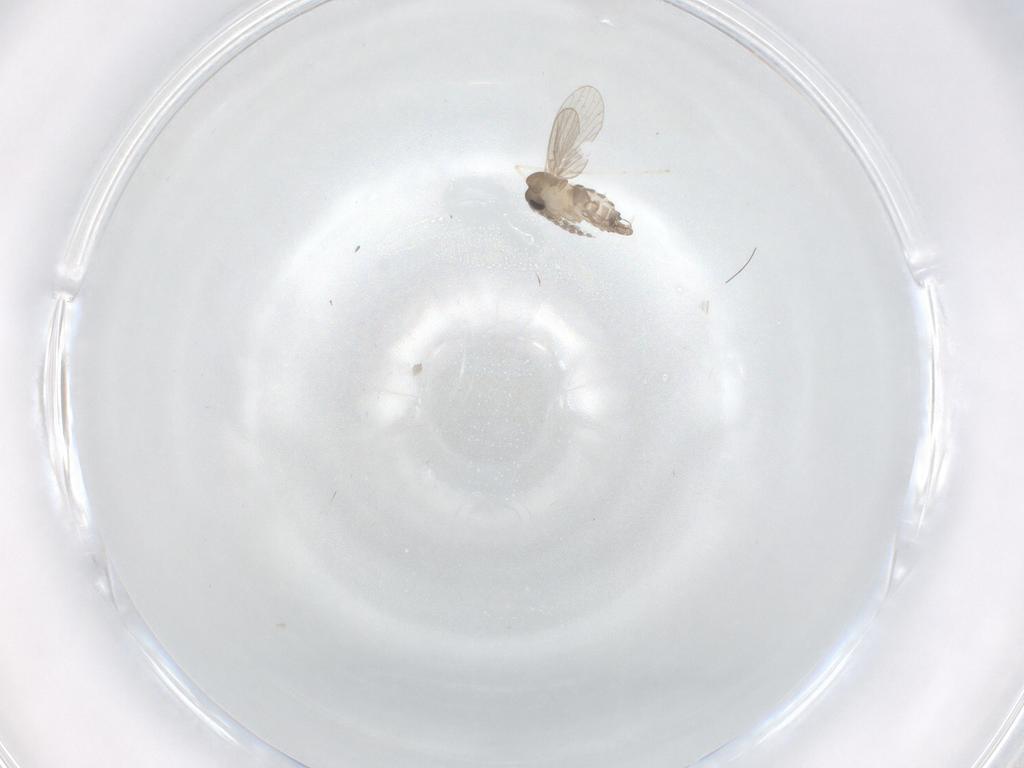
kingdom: Animalia
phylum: Arthropoda
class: Insecta
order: Diptera
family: Cecidomyiidae
